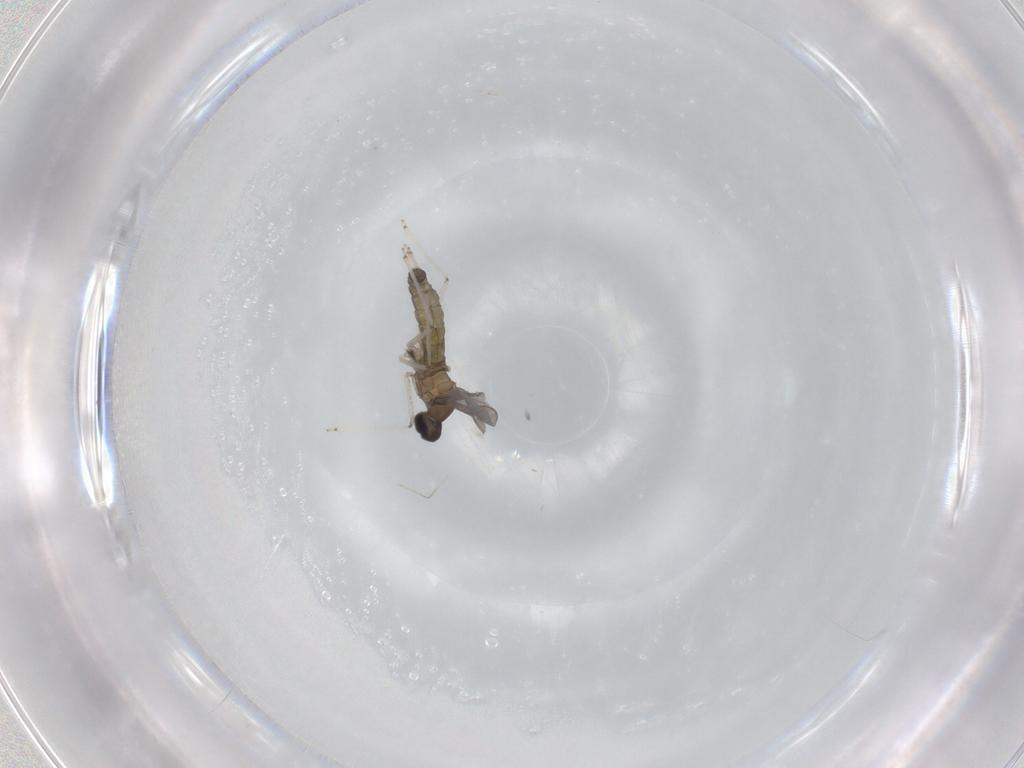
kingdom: Animalia
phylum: Arthropoda
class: Insecta
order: Diptera
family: Cecidomyiidae
